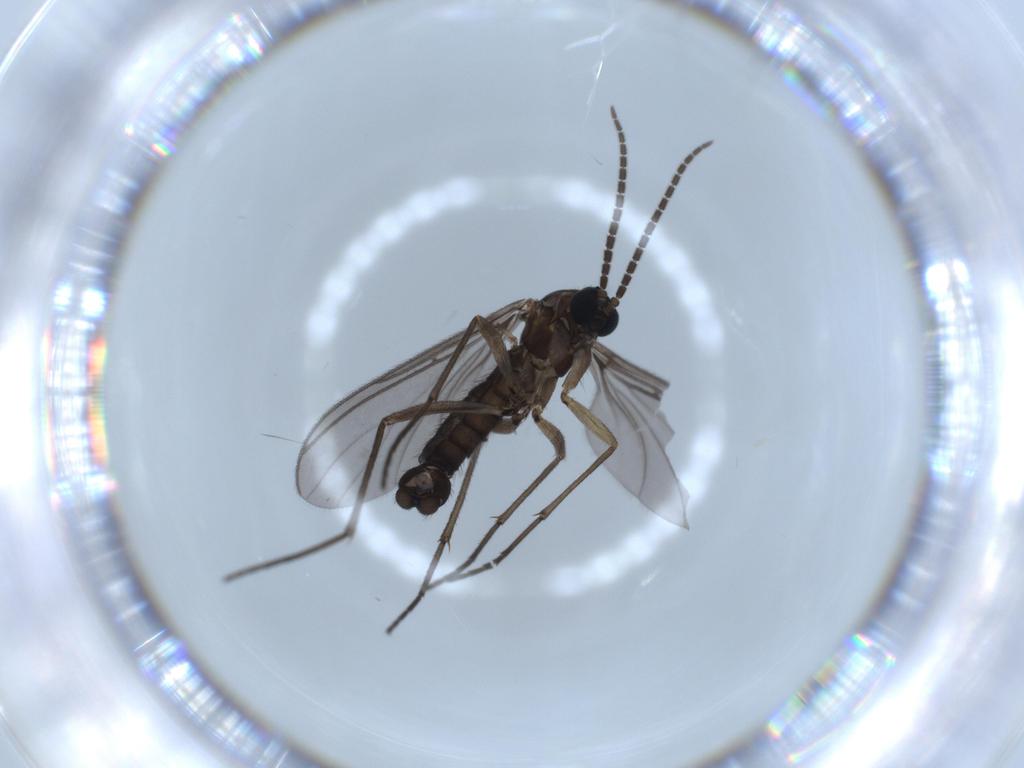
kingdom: Animalia
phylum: Arthropoda
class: Insecta
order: Diptera
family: Sciaridae
